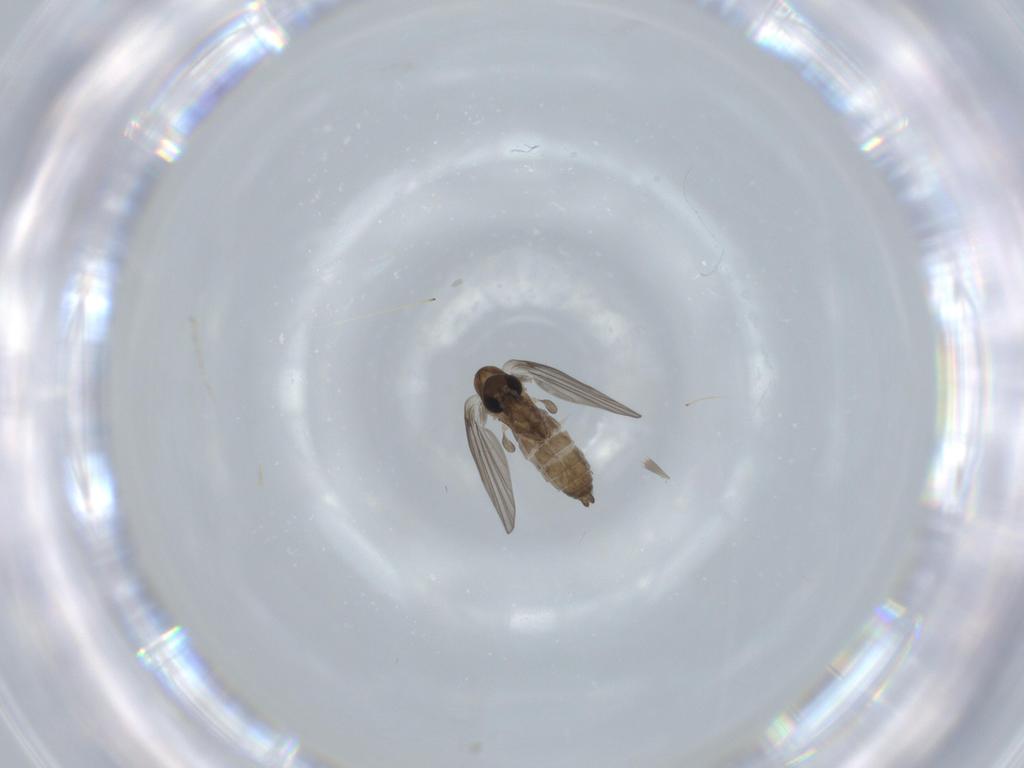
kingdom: Animalia
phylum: Arthropoda
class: Insecta
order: Diptera
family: Psychodidae
